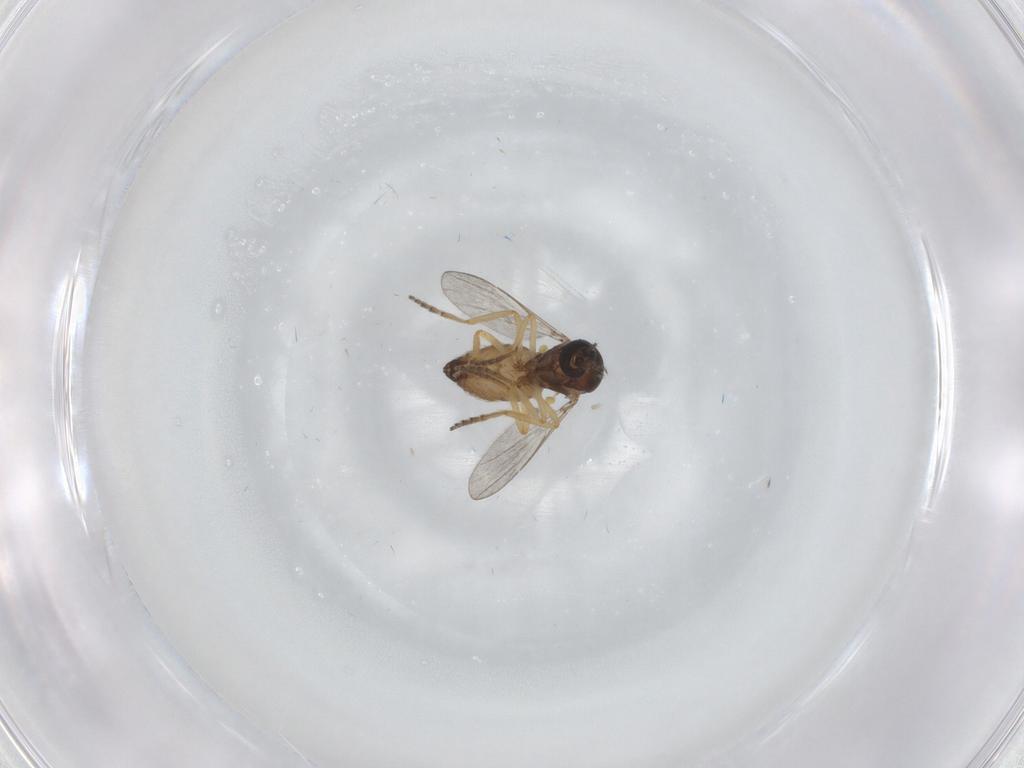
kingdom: Animalia
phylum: Arthropoda
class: Insecta
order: Diptera
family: Ceratopogonidae
